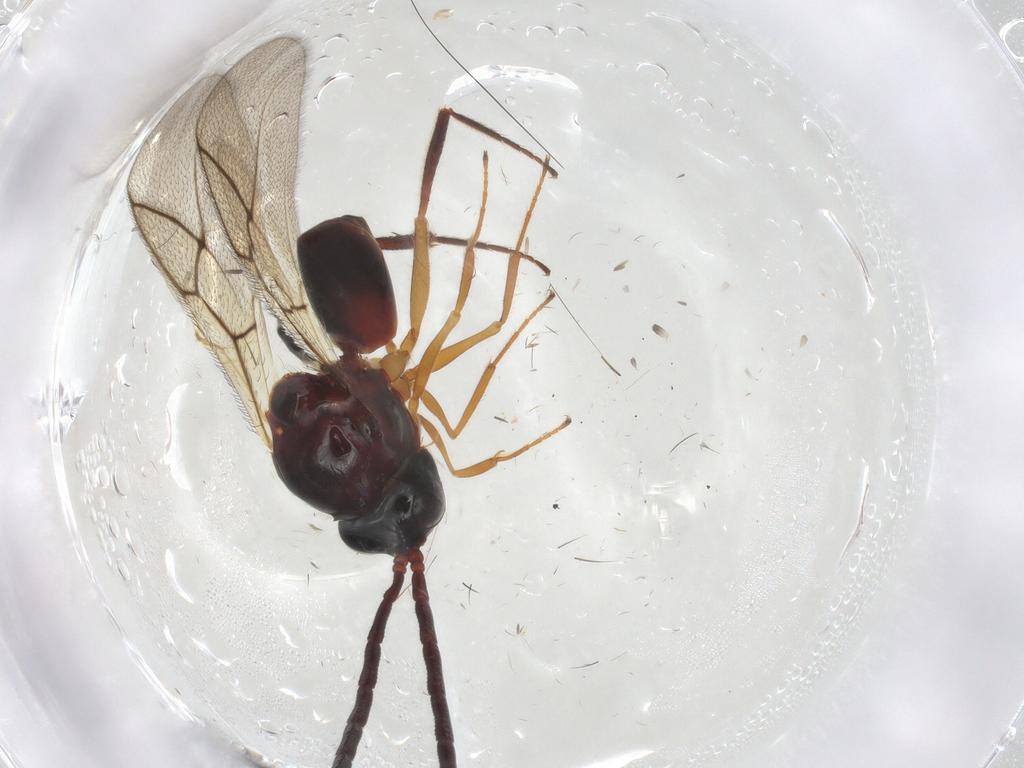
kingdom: Animalia
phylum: Arthropoda
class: Insecta
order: Hymenoptera
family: Figitidae
